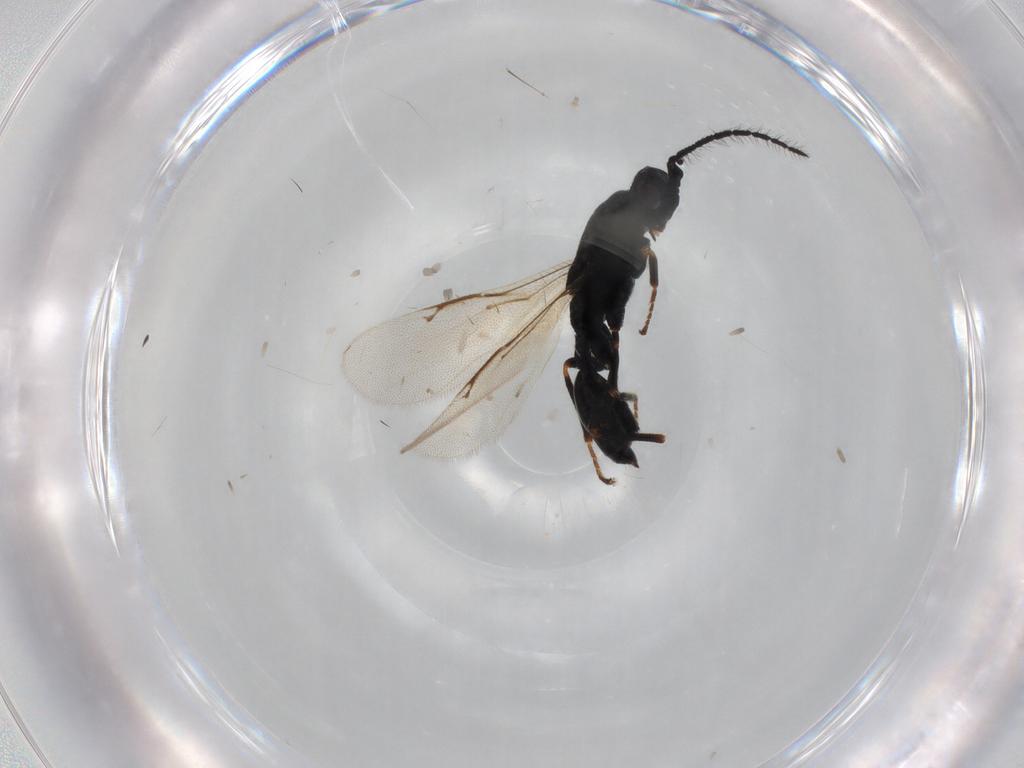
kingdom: Animalia
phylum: Arthropoda
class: Insecta
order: Hymenoptera
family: Eurytomidae
